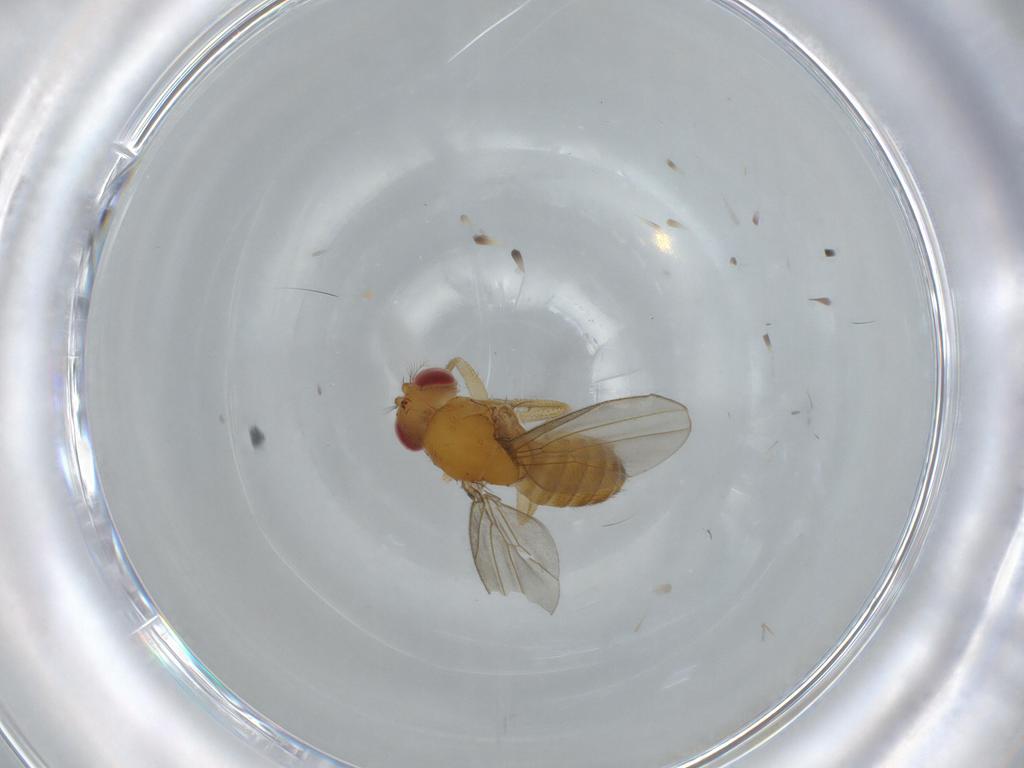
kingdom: Animalia
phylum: Arthropoda
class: Insecta
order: Diptera
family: Drosophilidae
